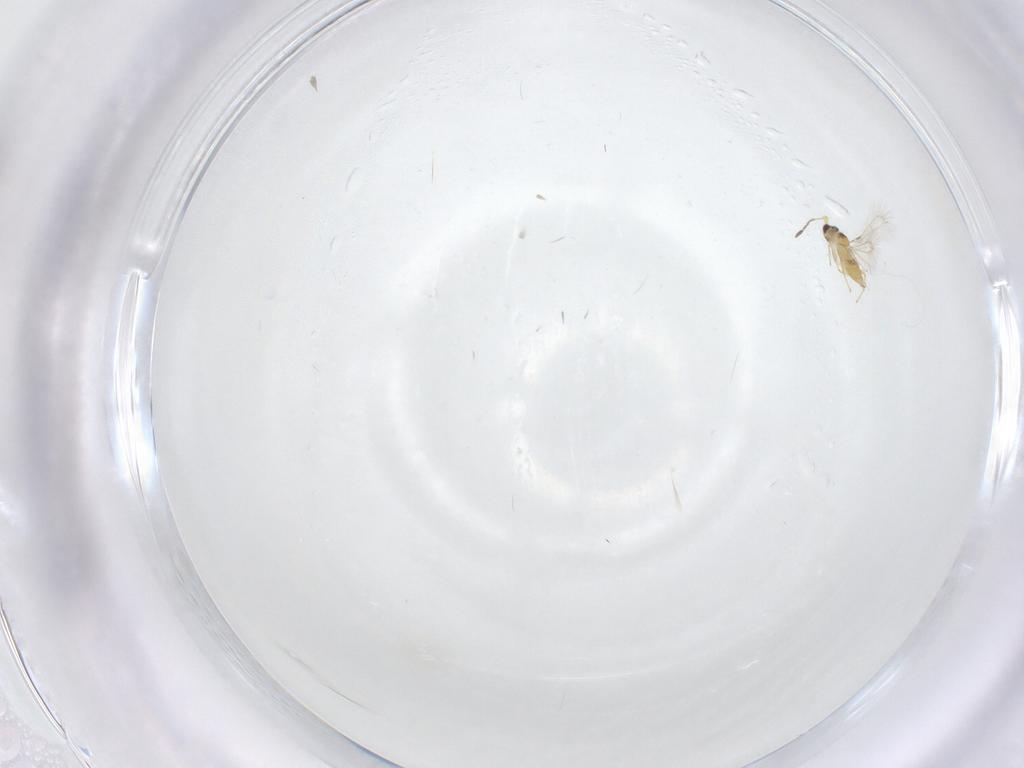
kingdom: Animalia
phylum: Arthropoda
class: Insecta
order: Hymenoptera
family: Mymaridae
